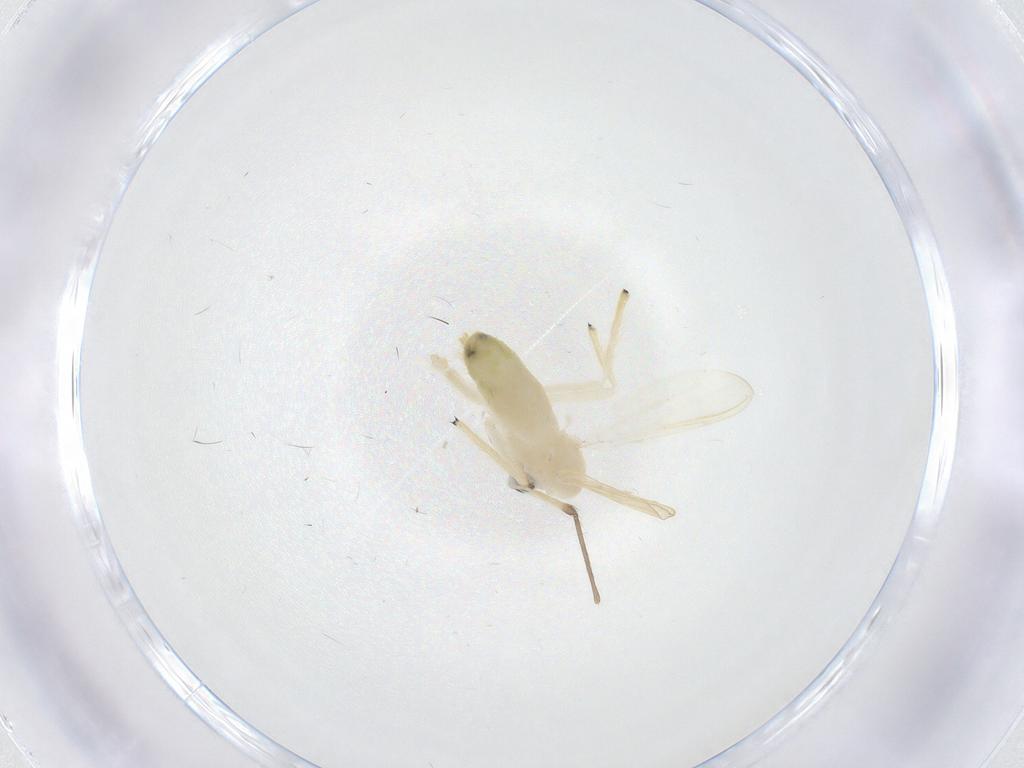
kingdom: Animalia
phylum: Arthropoda
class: Insecta
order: Diptera
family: Chironomidae
